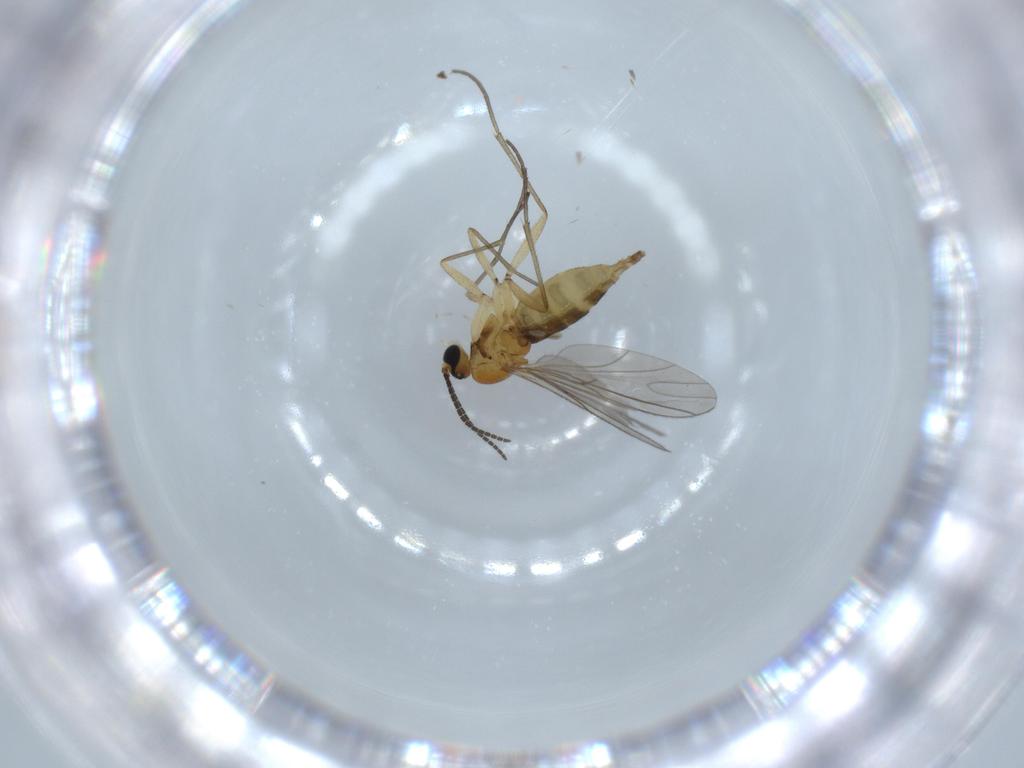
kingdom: Animalia
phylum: Arthropoda
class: Insecta
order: Diptera
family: Sciaridae
